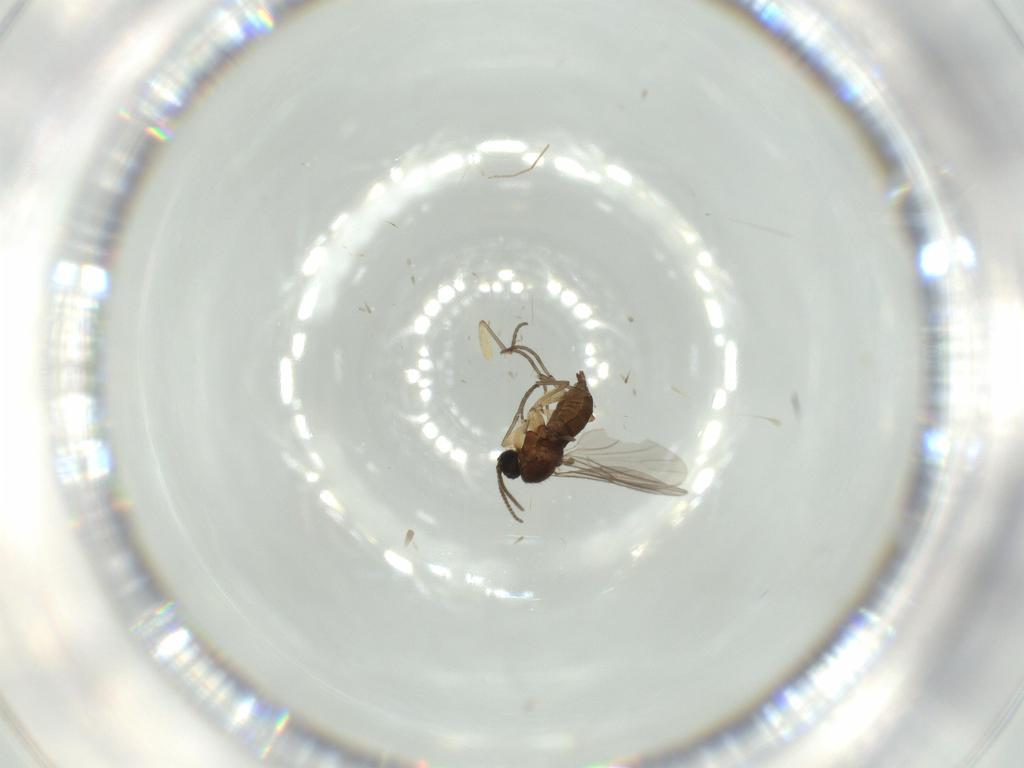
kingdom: Animalia
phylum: Arthropoda
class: Insecta
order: Diptera
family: Sciaridae
